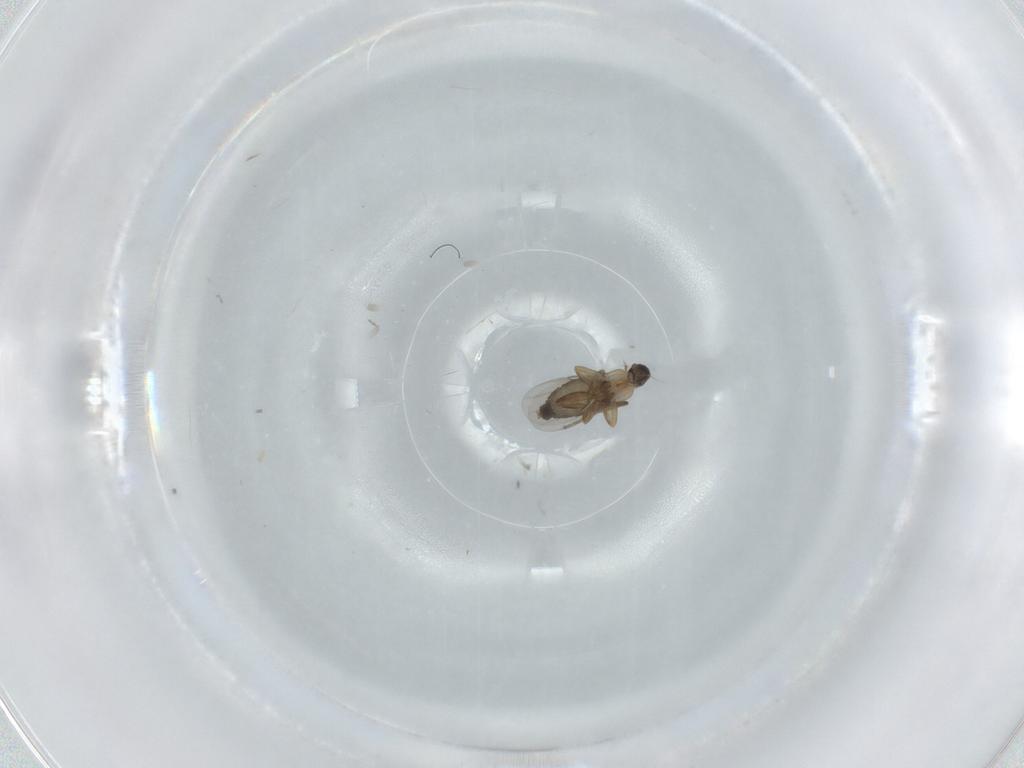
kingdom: Animalia
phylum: Arthropoda
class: Insecta
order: Diptera
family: Phoridae
